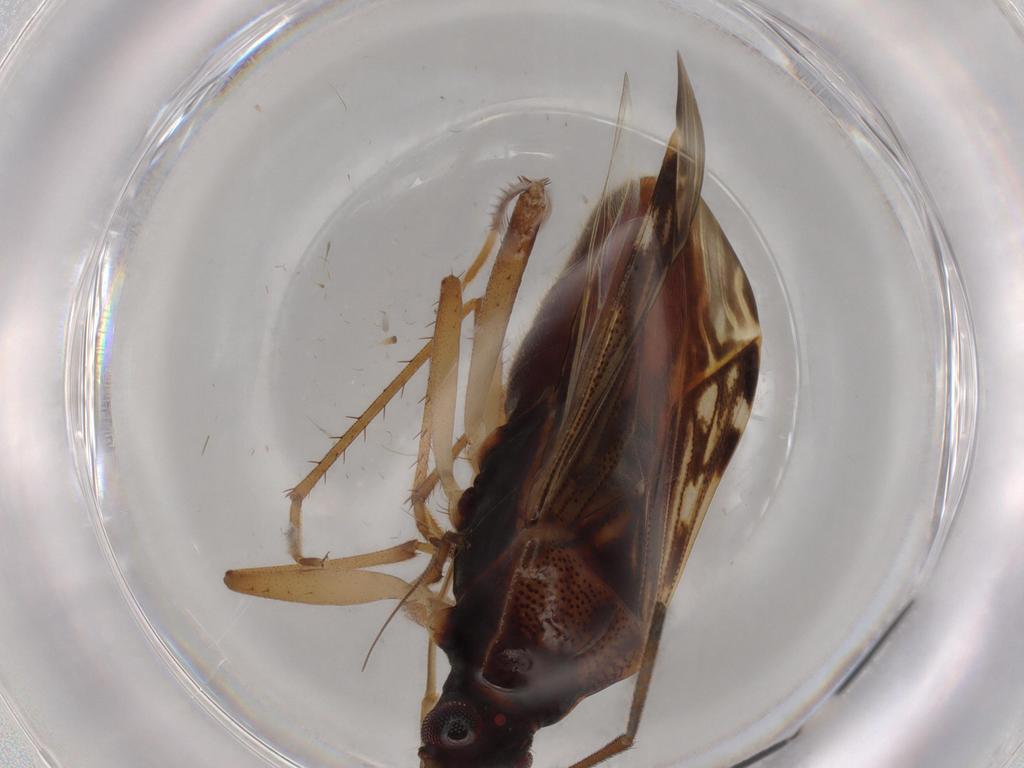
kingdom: Animalia
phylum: Arthropoda
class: Insecta
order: Hemiptera
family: Rhyparochromidae
